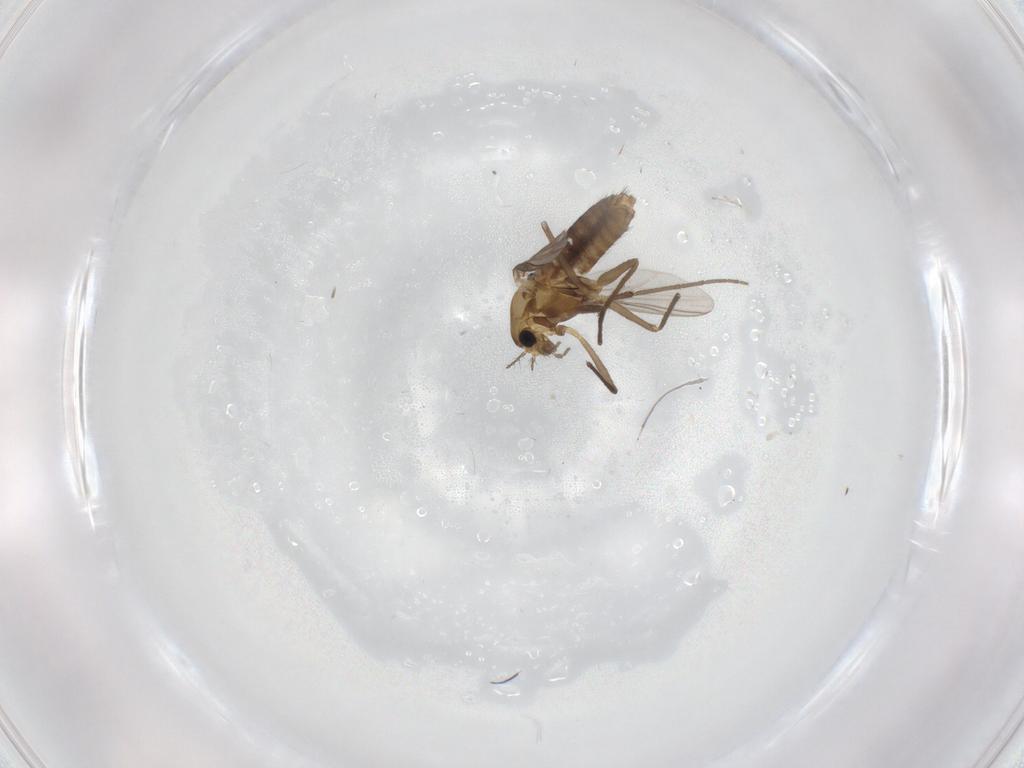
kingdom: Animalia
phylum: Arthropoda
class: Insecta
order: Diptera
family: Chironomidae
